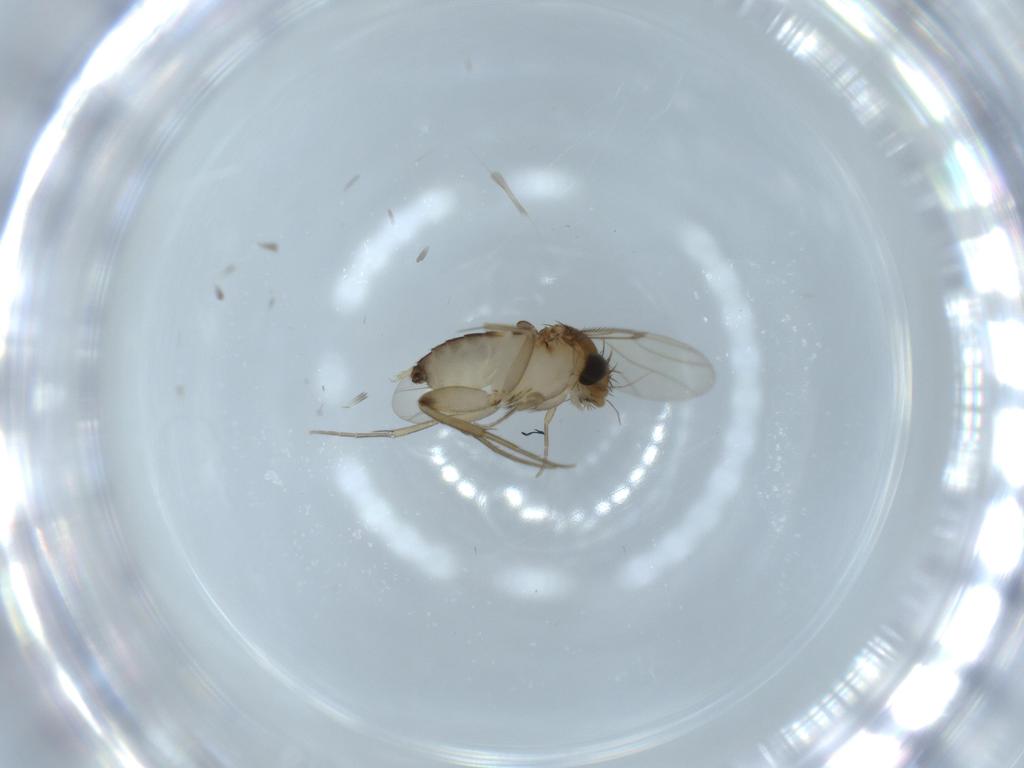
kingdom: Animalia
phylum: Arthropoda
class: Insecta
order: Diptera
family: Phoridae
